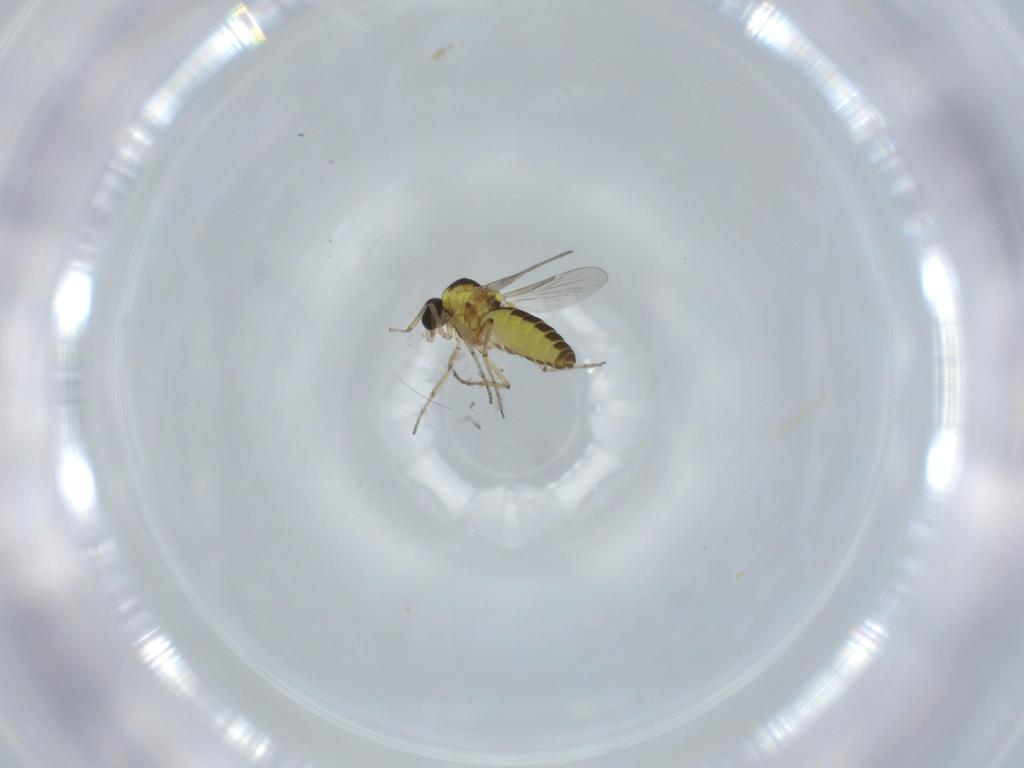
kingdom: Animalia
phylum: Arthropoda
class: Insecta
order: Diptera
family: Ceratopogonidae
